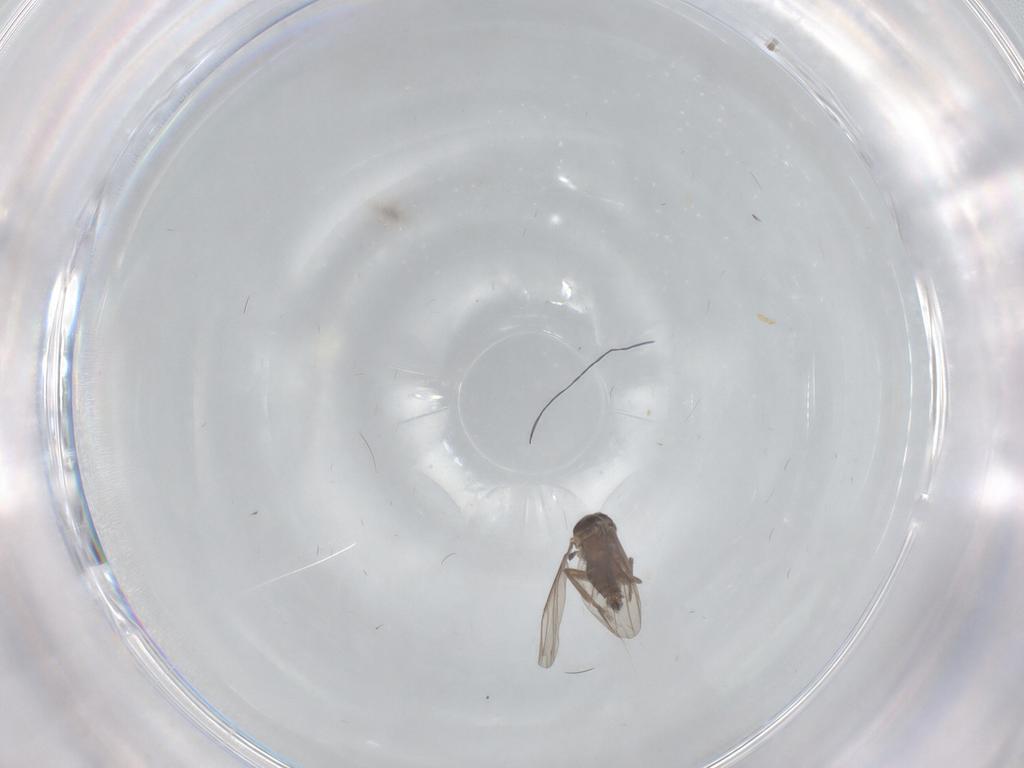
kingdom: Animalia
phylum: Arthropoda
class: Insecta
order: Diptera
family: Phoridae
